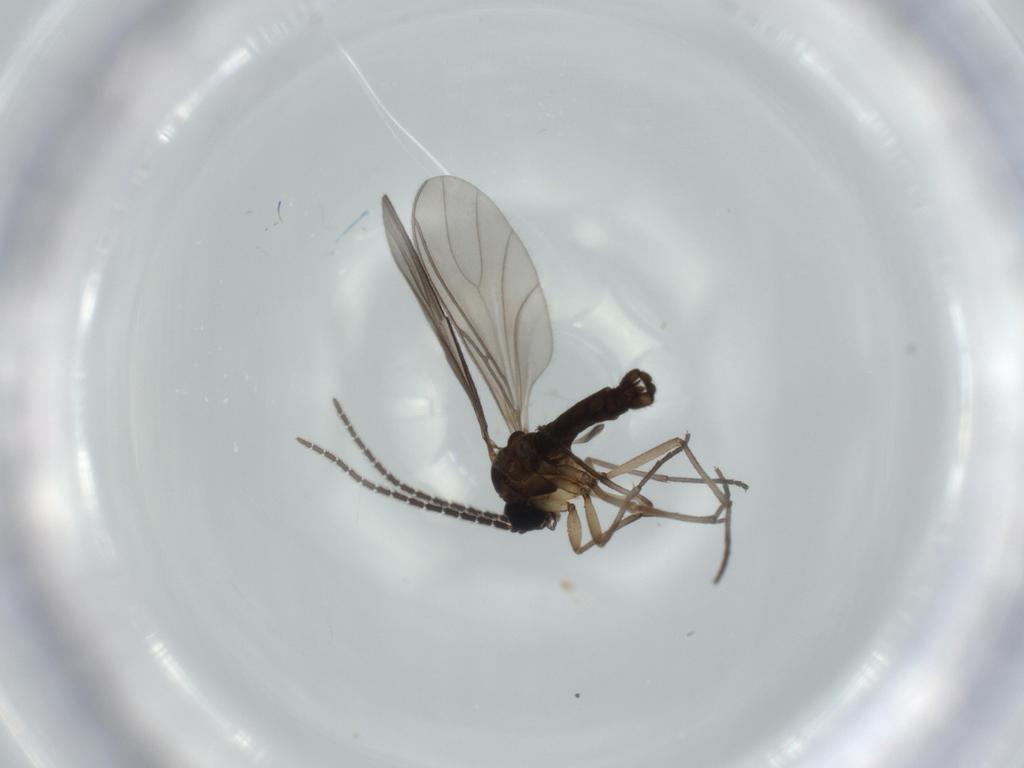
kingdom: Animalia
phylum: Arthropoda
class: Insecta
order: Diptera
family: Sciaridae
